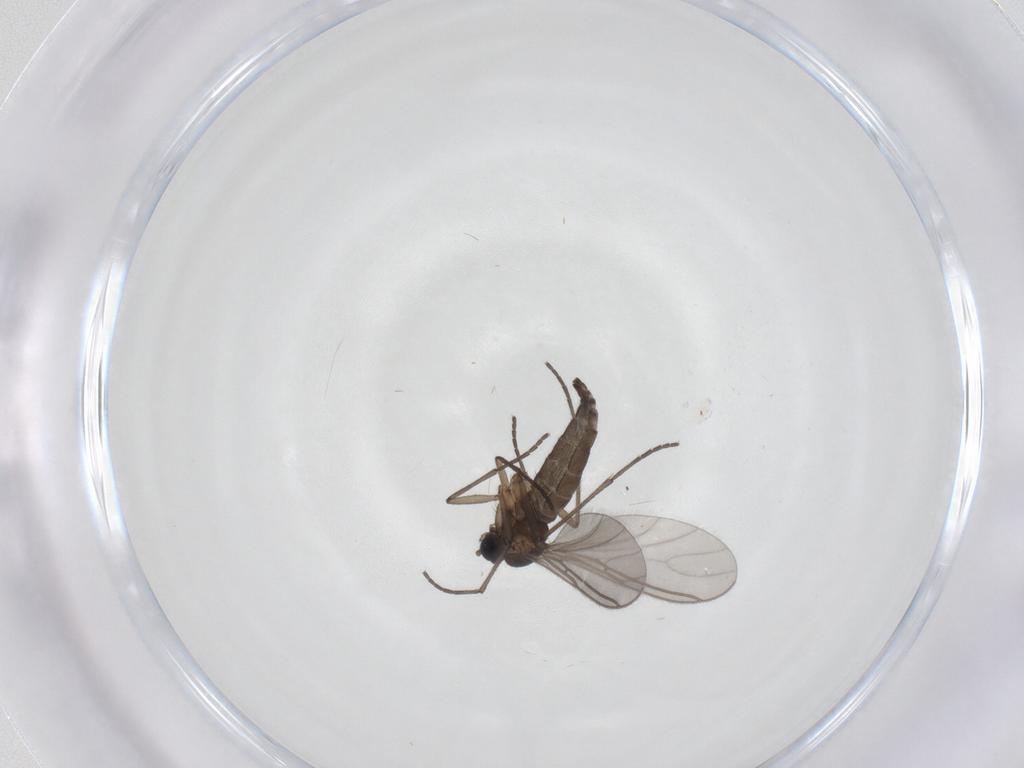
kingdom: Animalia
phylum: Arthropoda
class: Insecta
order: Diptera
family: Sciaridae
